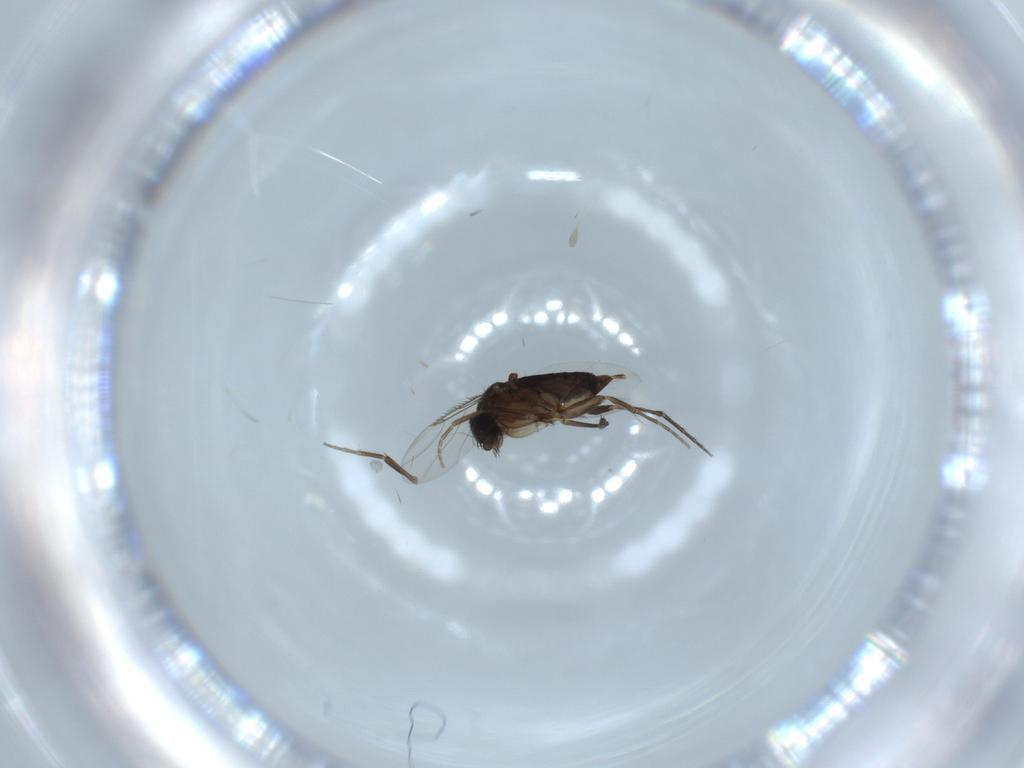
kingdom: Animalia
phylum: Arthropoda
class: Insecta
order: Diptera
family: Phoridae
